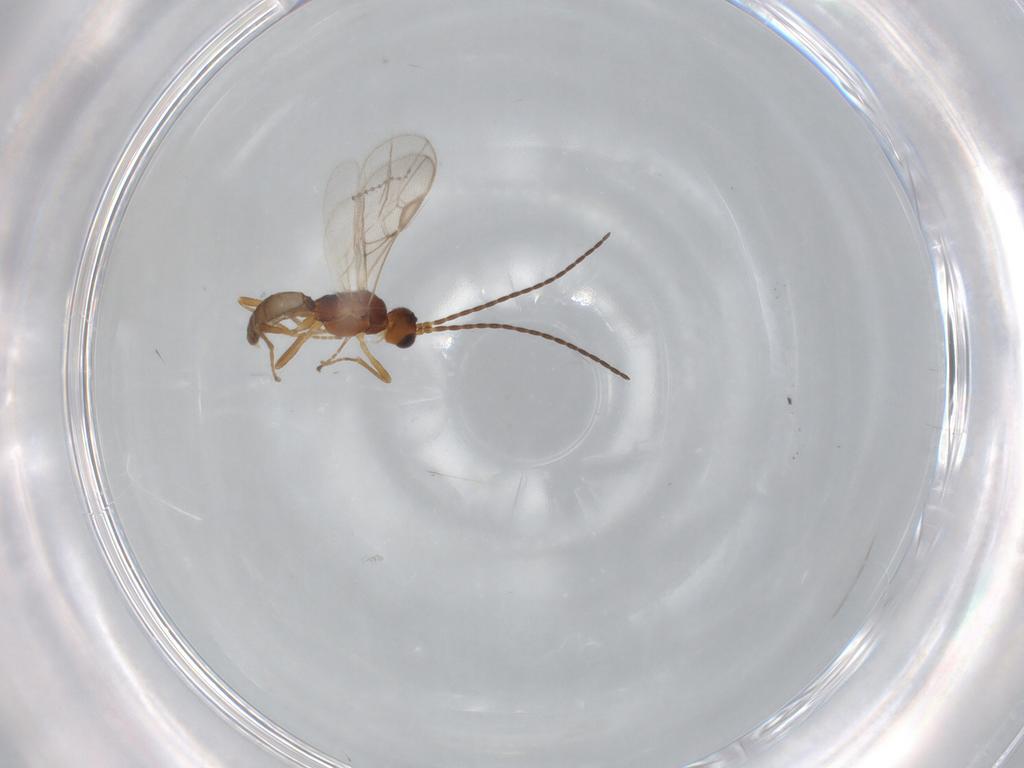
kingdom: Animalia
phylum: Arthropoda
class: Insecta
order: Hymenoptera
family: Braconidae
